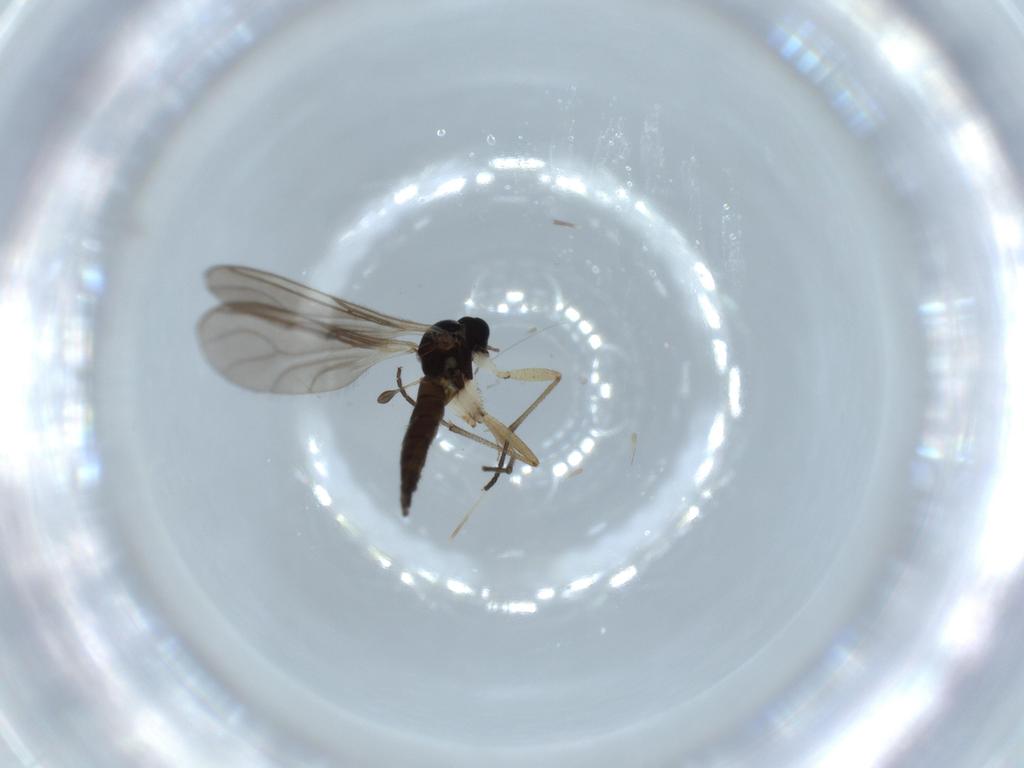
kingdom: Animalia
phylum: Arthropoda
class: Insecta
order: Diptera
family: Sciaridae
